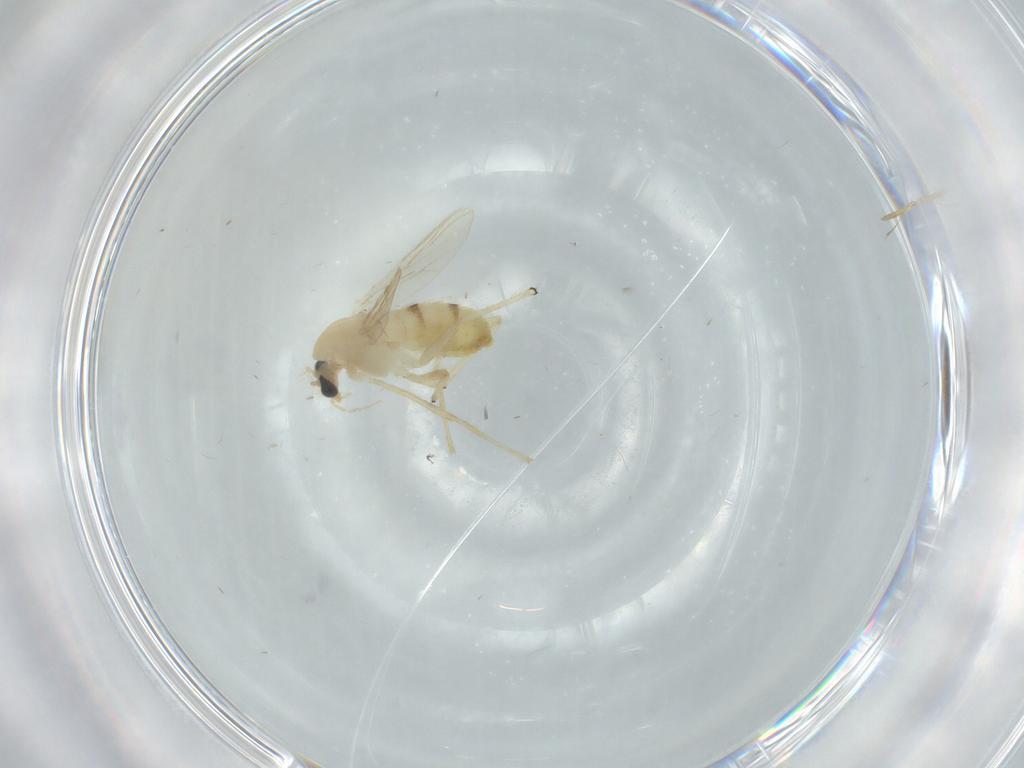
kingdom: Animalia
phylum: Arthropoda
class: Insecta
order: Diptera
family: Chironomidae
